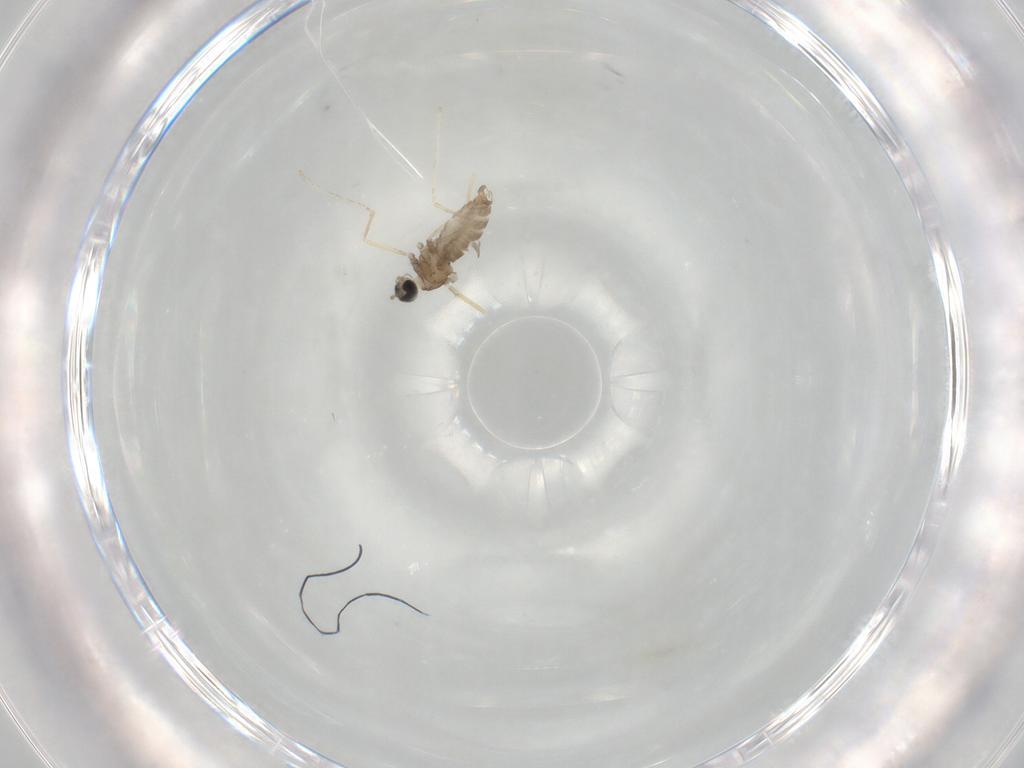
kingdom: Animalia
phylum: Arthropoda
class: Insecta
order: Diptera
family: Cecidomyiidae
